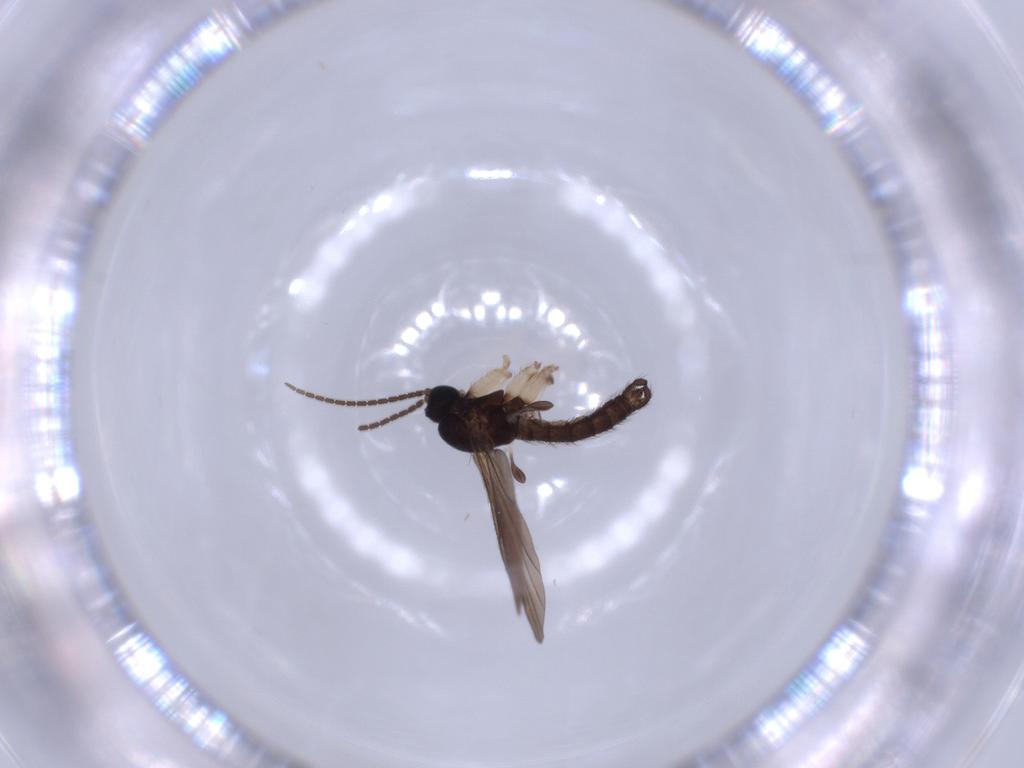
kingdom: Animalia
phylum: Arthropoda
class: Insecta
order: Diptera
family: Sciaridae
